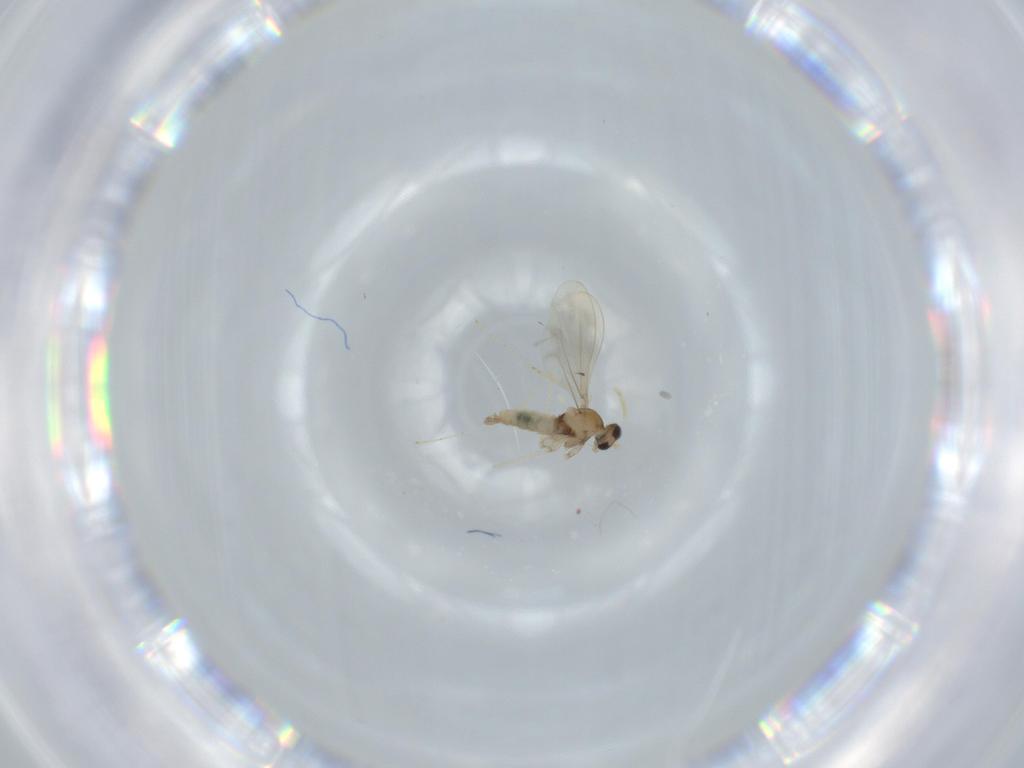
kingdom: Animalia
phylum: Arthropoda
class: Insecta
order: Diptera
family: Cecidomyiidae
